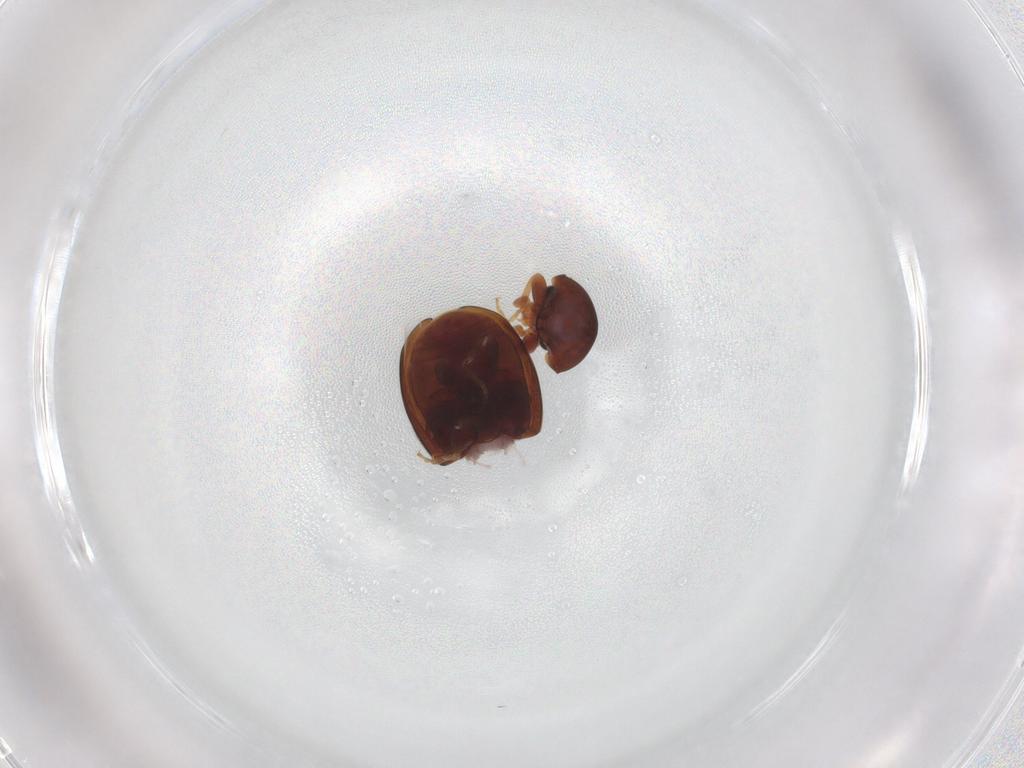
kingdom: Animalia
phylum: Arthropoda
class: Insecta
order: Coleoptera
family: Coccinellidae
